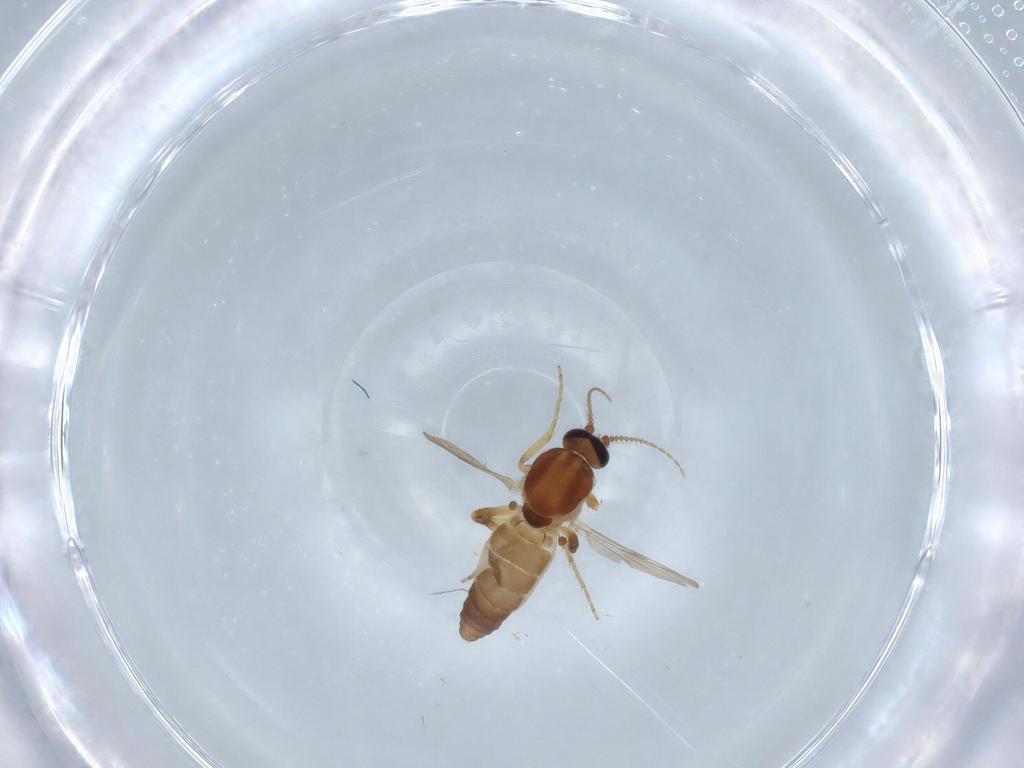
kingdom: Animalia
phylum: Arthropoda
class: Insecta
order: Diptera
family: Ceratopogonidae
